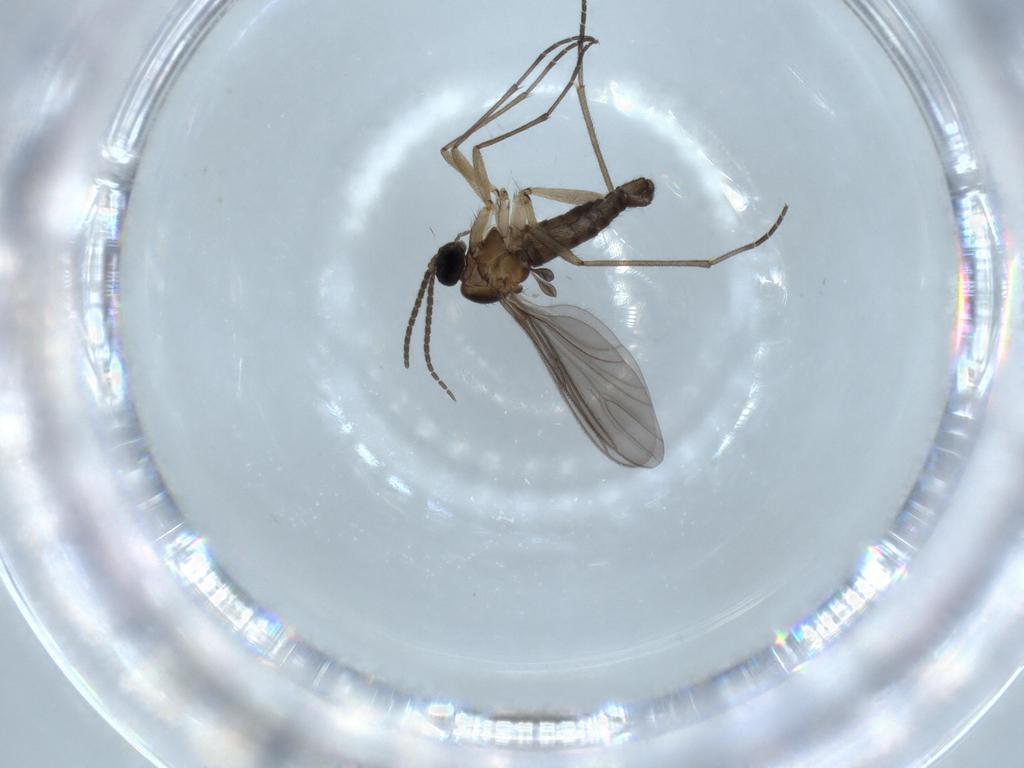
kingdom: Animalia
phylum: Arthropoda
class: Insecta
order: Diptera
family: Sciaridae
